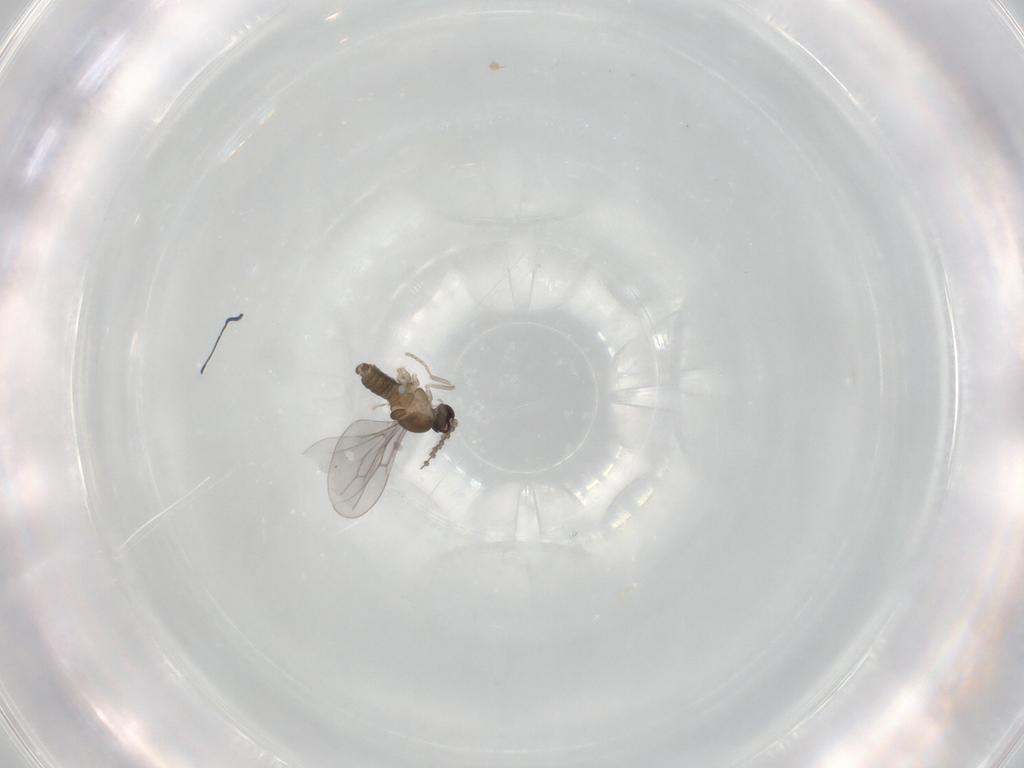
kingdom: Animalia
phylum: Arthropoda
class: Insecta
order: Diptera
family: Cecidomyiidae
